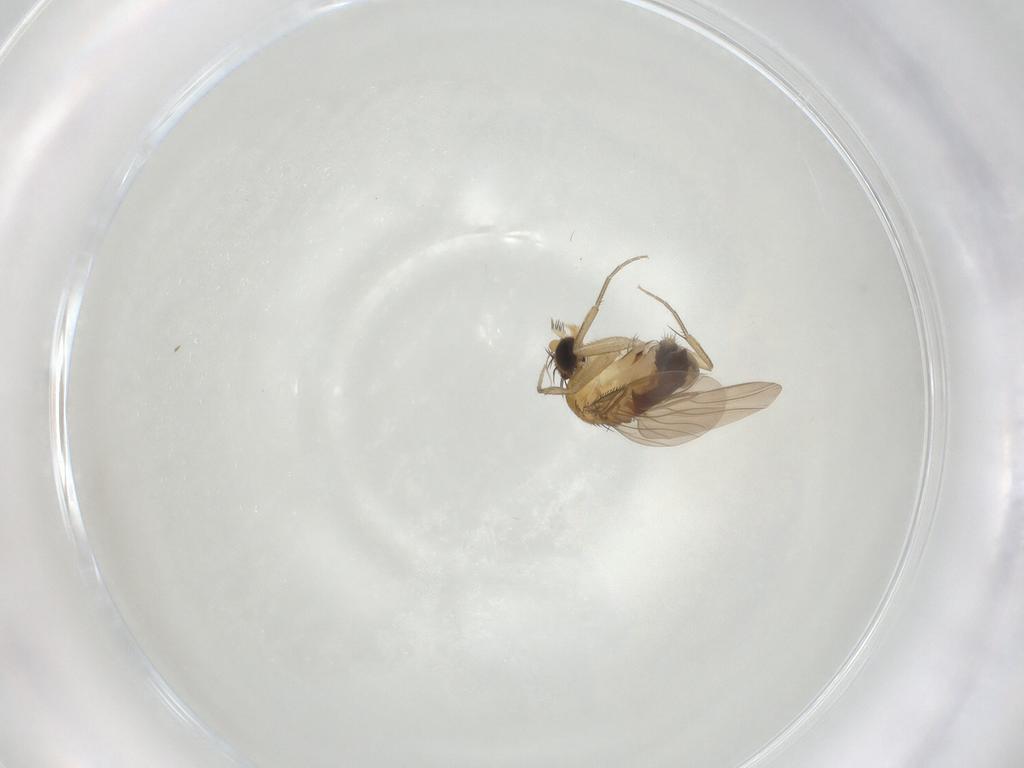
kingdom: Animalia
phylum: Arthropoda
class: Insecta
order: Diptera
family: Phoridae
